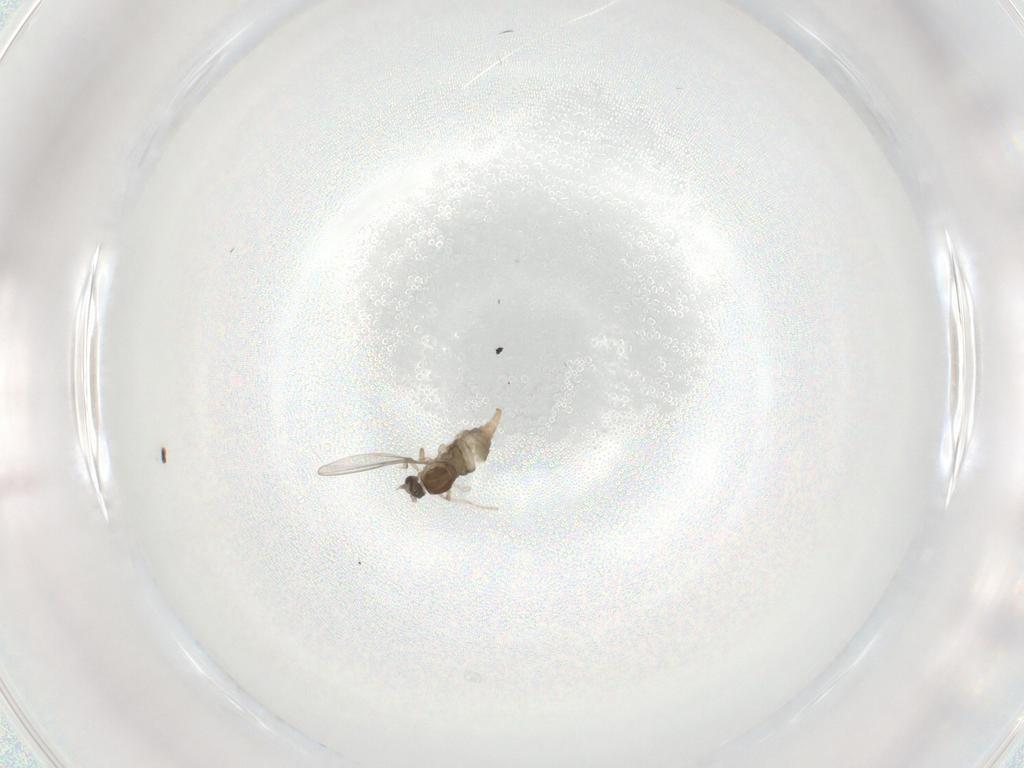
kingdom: Animalia
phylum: Arthropoda
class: Insecta
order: Diptera
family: Cecidomyiidae
